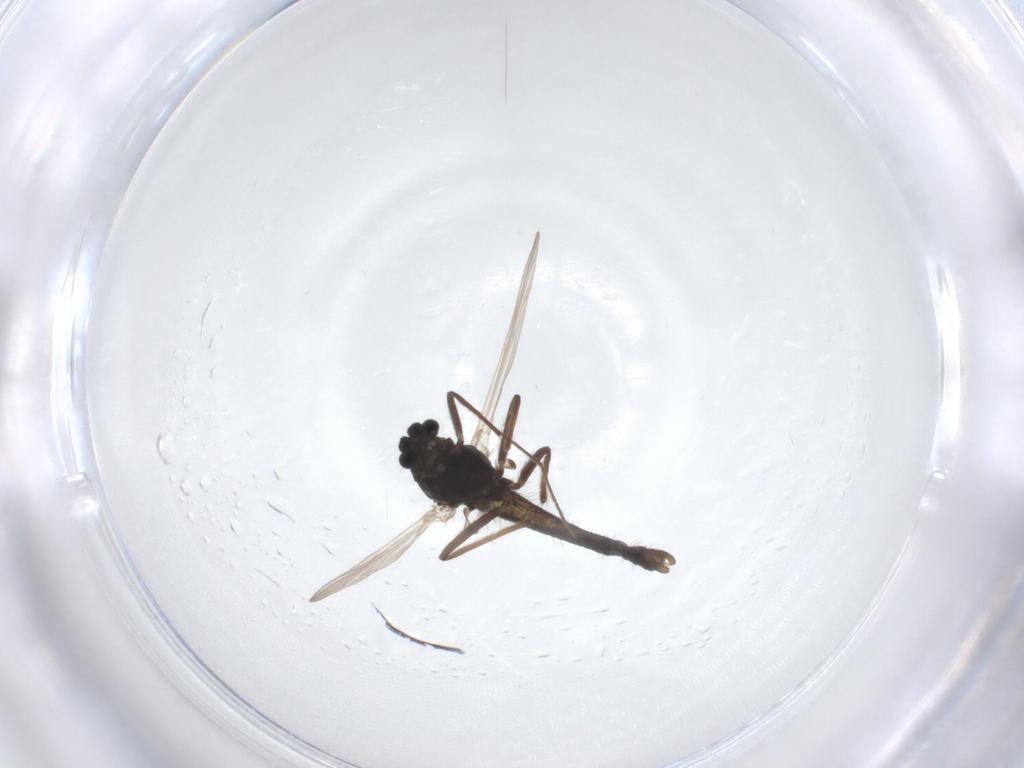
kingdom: Animalia
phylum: Arthropoda
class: Insecta
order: Diptera
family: Chironomidae
